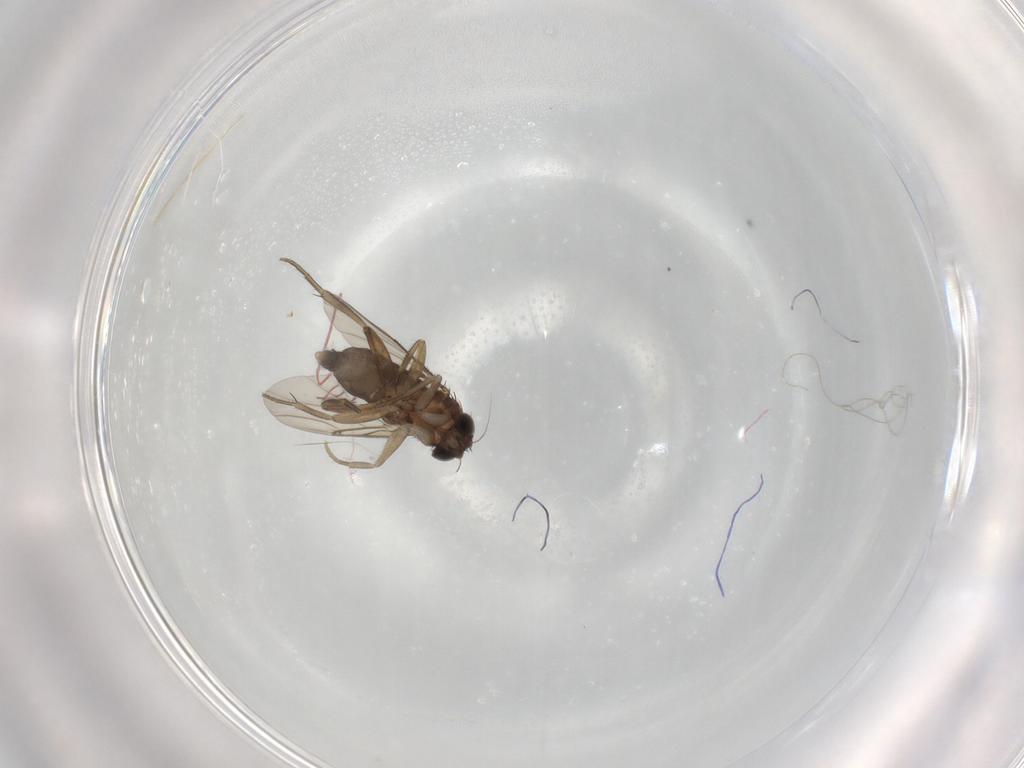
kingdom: Animalia
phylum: Arthropoda
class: Insecta
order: Diptera
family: Phoridae
